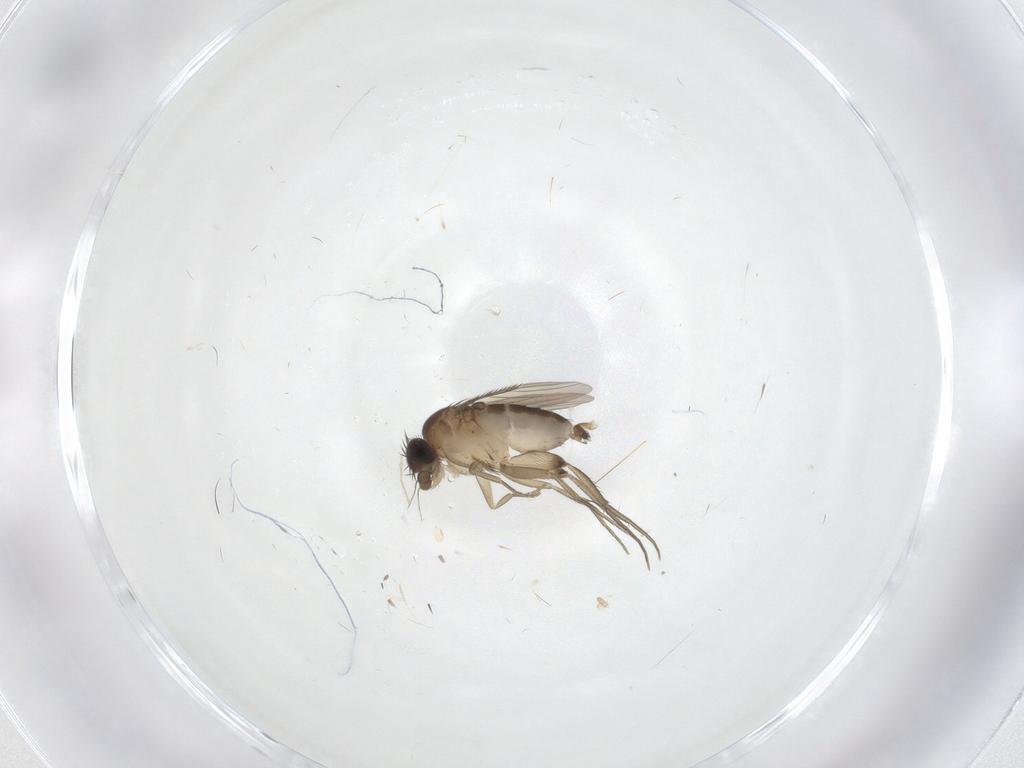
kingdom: Animalia
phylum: Arthropoda
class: Insecta
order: Diptera
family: Phoridae
